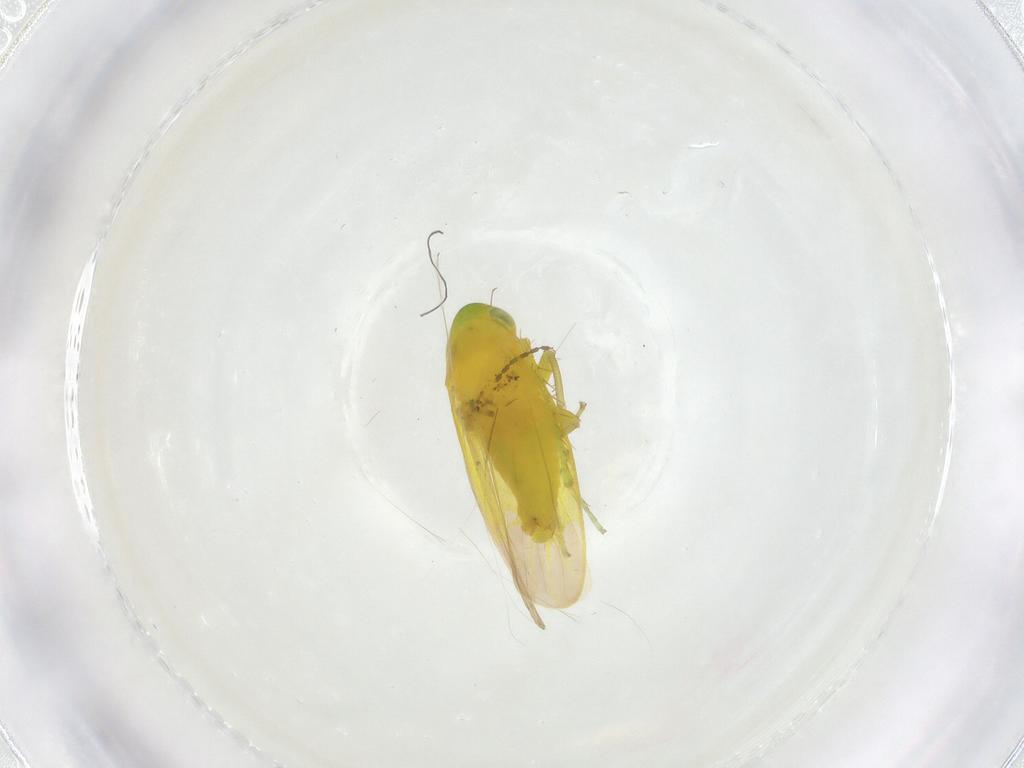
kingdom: Animalia
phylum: Arthropoda
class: Insecta
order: Hemiptera
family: Cicadellidae
